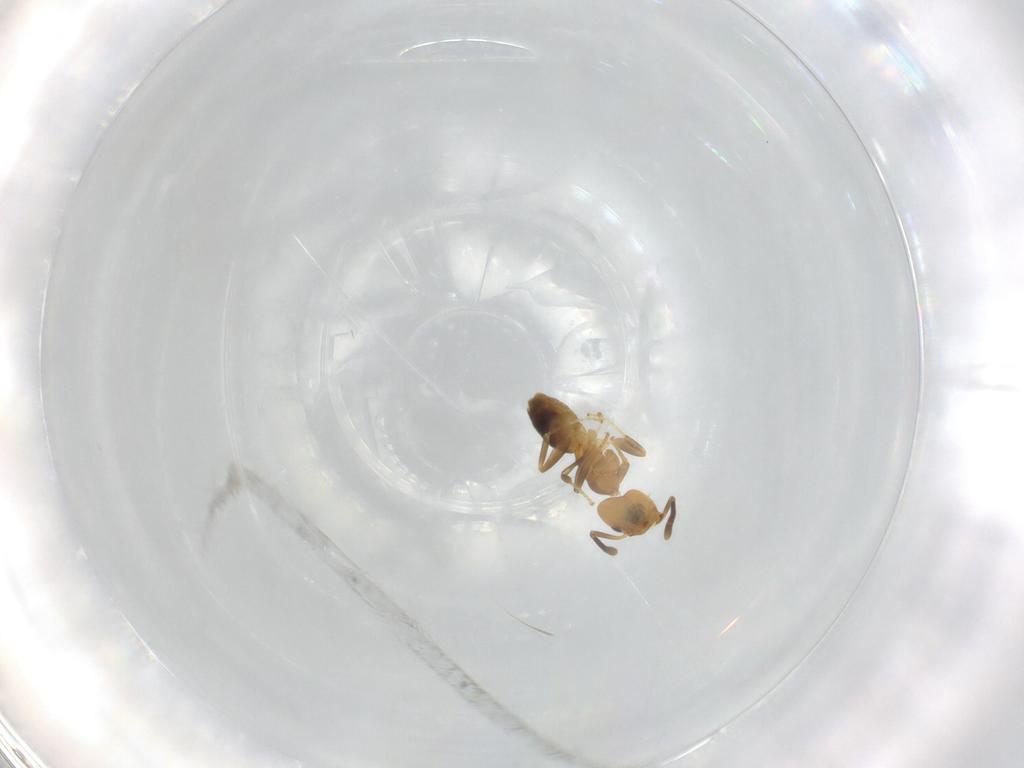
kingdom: Animalia
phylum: Arthropoda
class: Insecta
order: Hymenoptera
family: Formicidae
